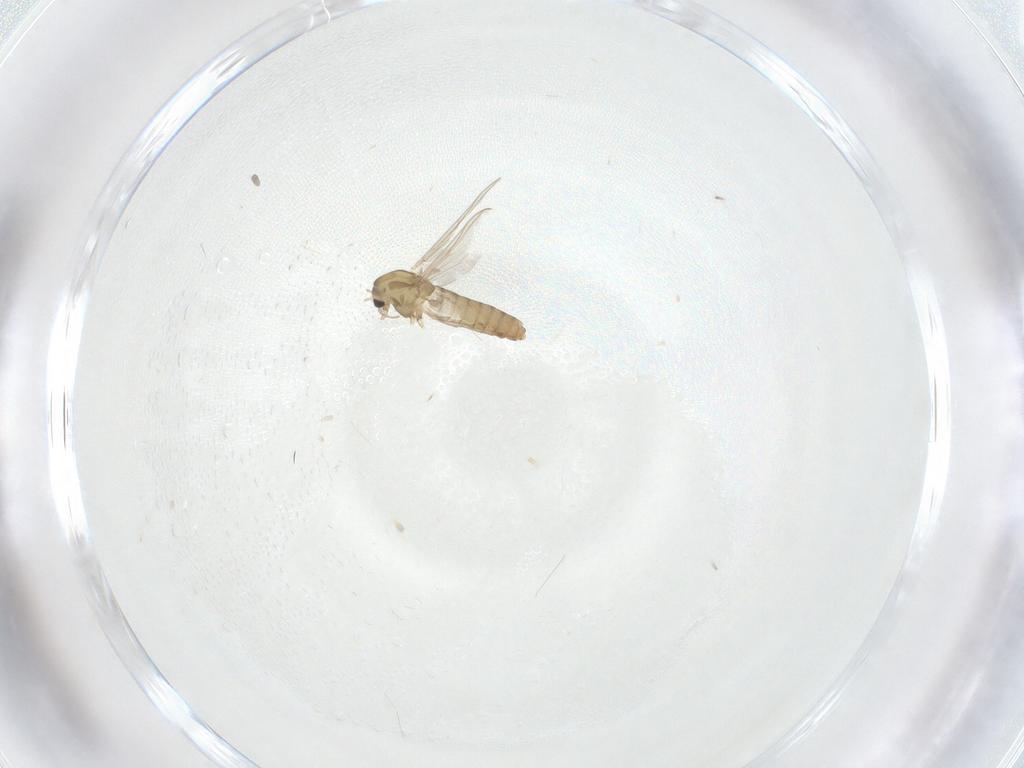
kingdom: Animalia
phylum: Arthropoda
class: Insecta
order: Diptera
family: Chironomidae
